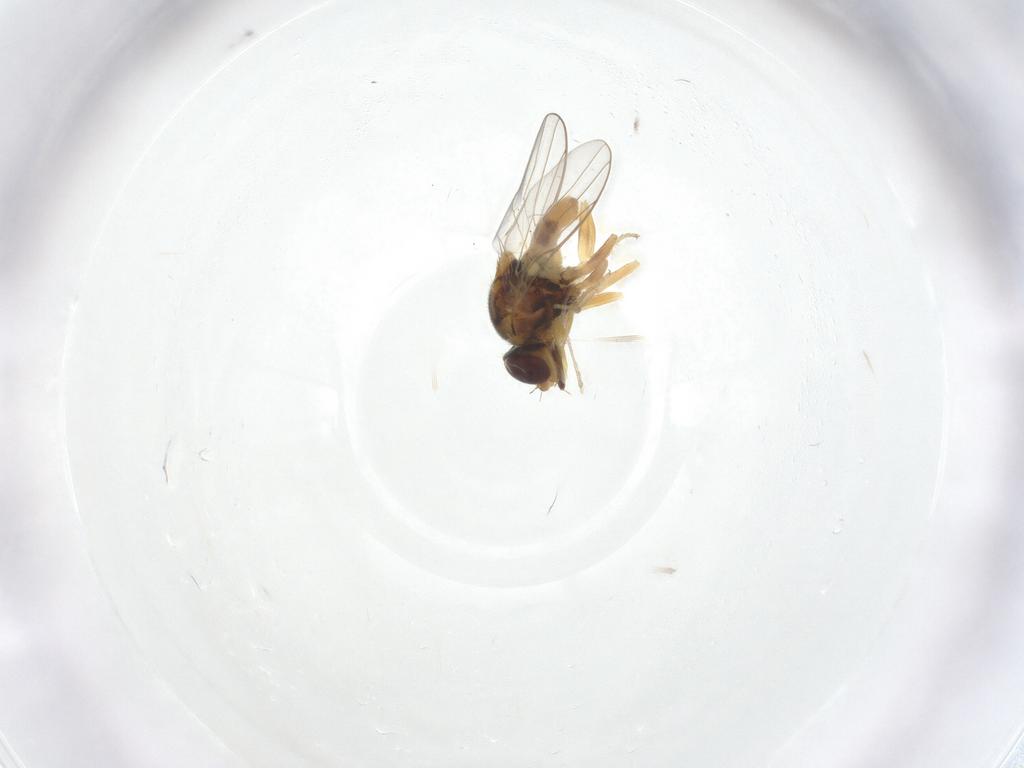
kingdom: Animalia
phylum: Arthropoda
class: Insecta
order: Diptera
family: Chloropidae
